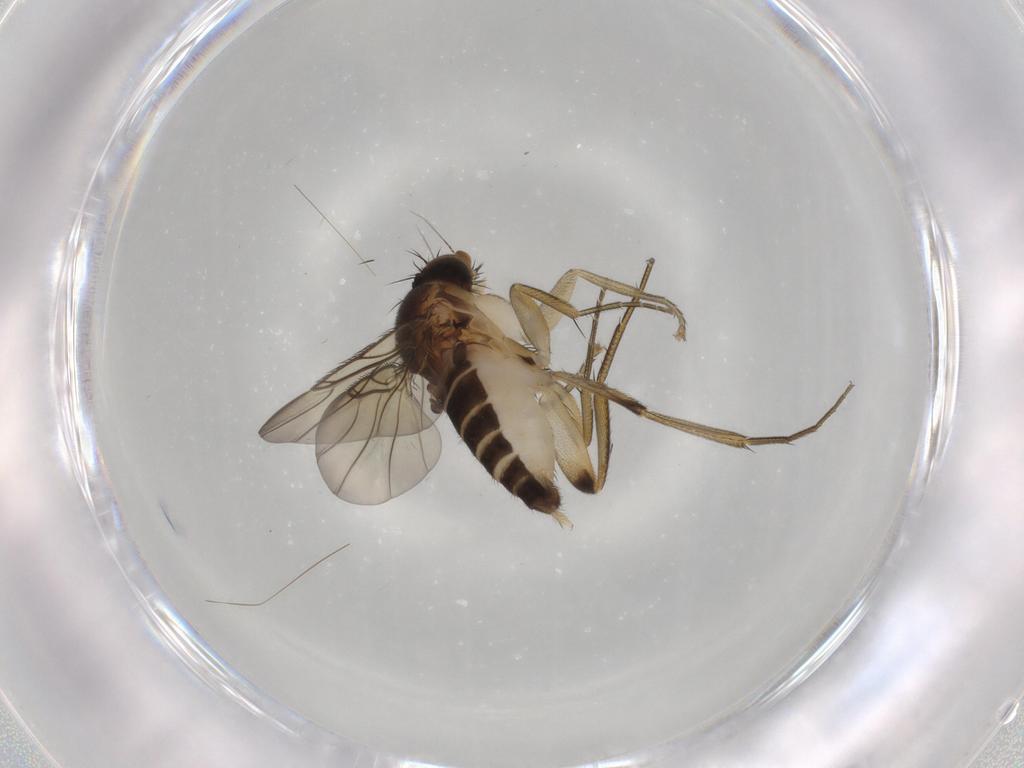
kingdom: Animalia
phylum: Arthropoda
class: Insecta
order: Diptera
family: Phoridae
